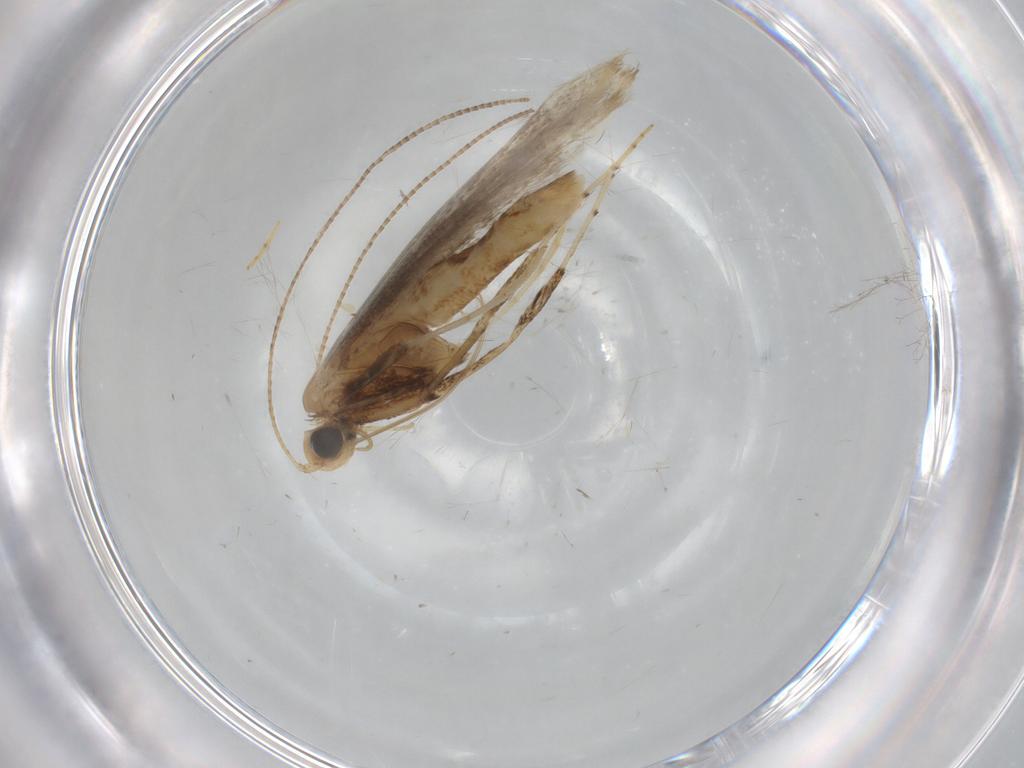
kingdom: Animalia
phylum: Arthropoda
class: Insecta
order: Lepidoptera
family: Gracillariidae
